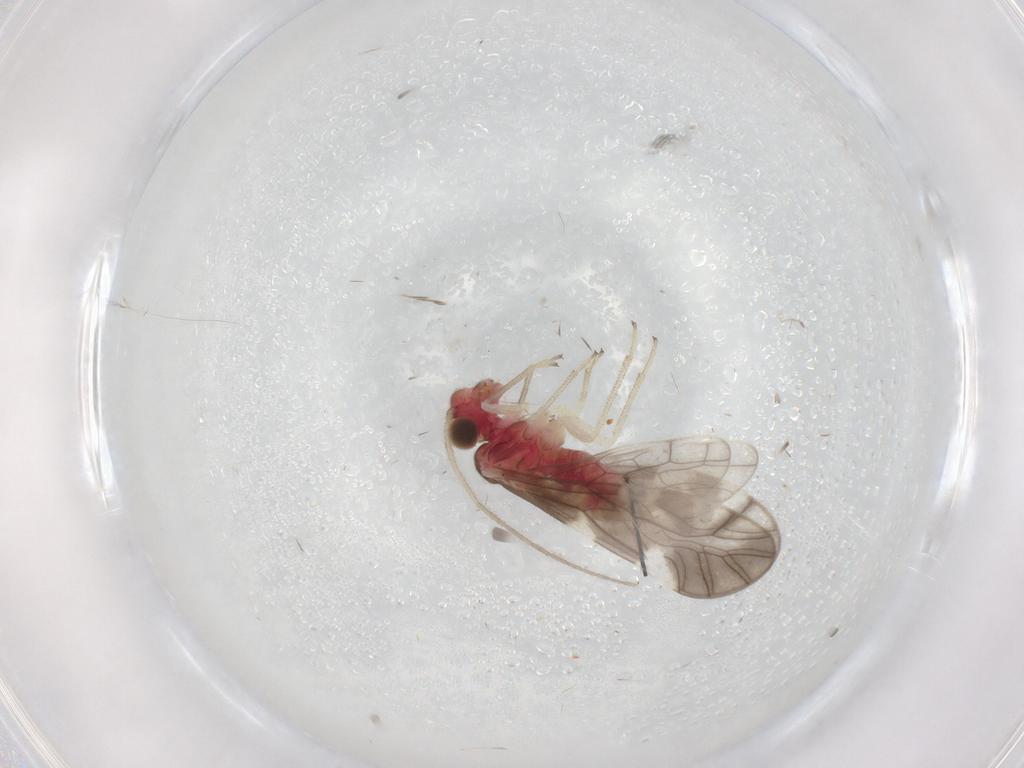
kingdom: Animalia
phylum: Arthropoda
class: Insecta
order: Psocodea
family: Caeciliusidae
